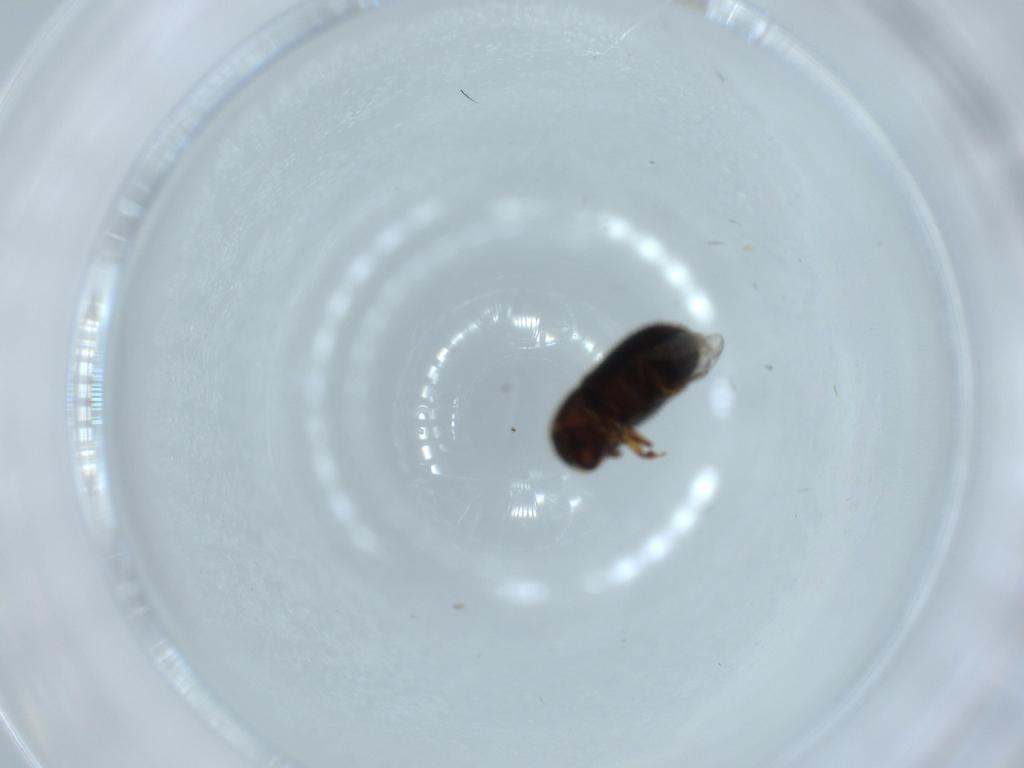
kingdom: Animalia
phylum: Arthropoda
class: Insecta
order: Coleoptera
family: Curculionidae
